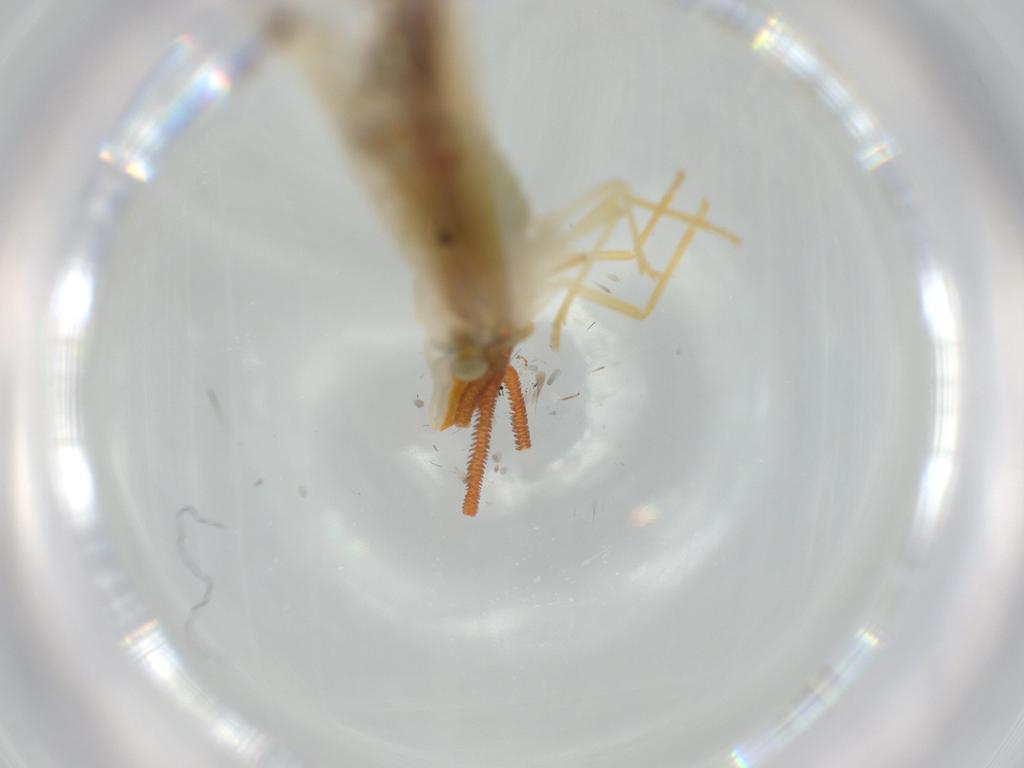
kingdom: Animalia
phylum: Arthropoda
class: Insecta
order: Hemiptera
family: Derbidae
